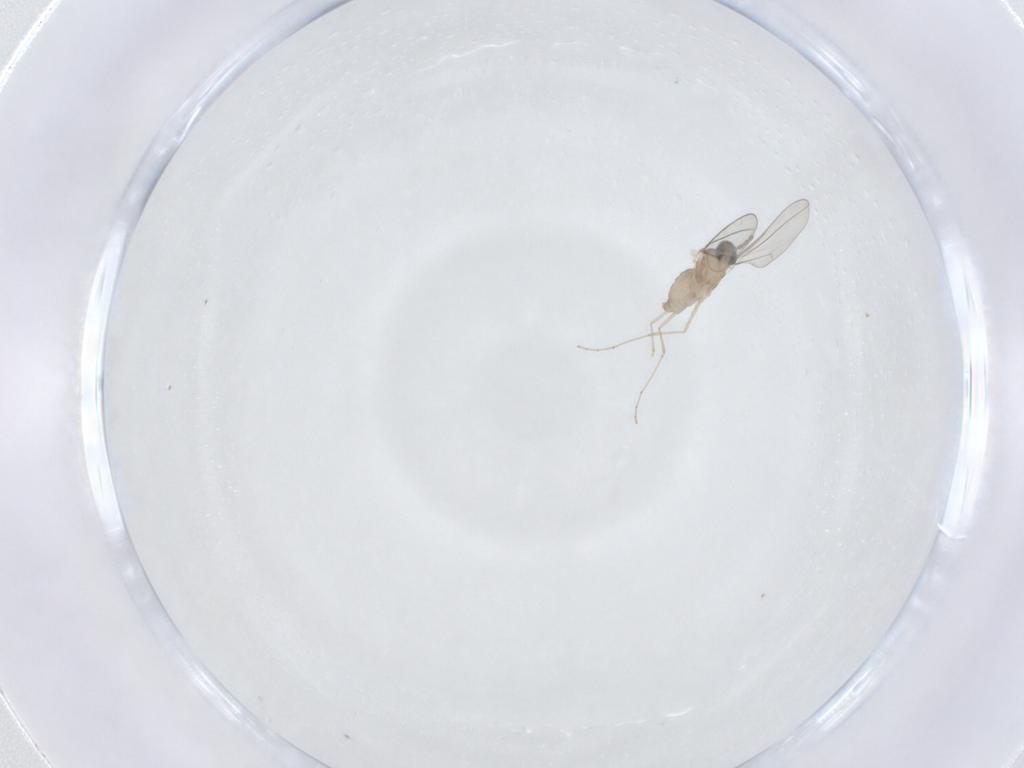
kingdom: Animalia
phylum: Arthropoda
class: Insecta
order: Diptera
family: Cecidomyiidae
